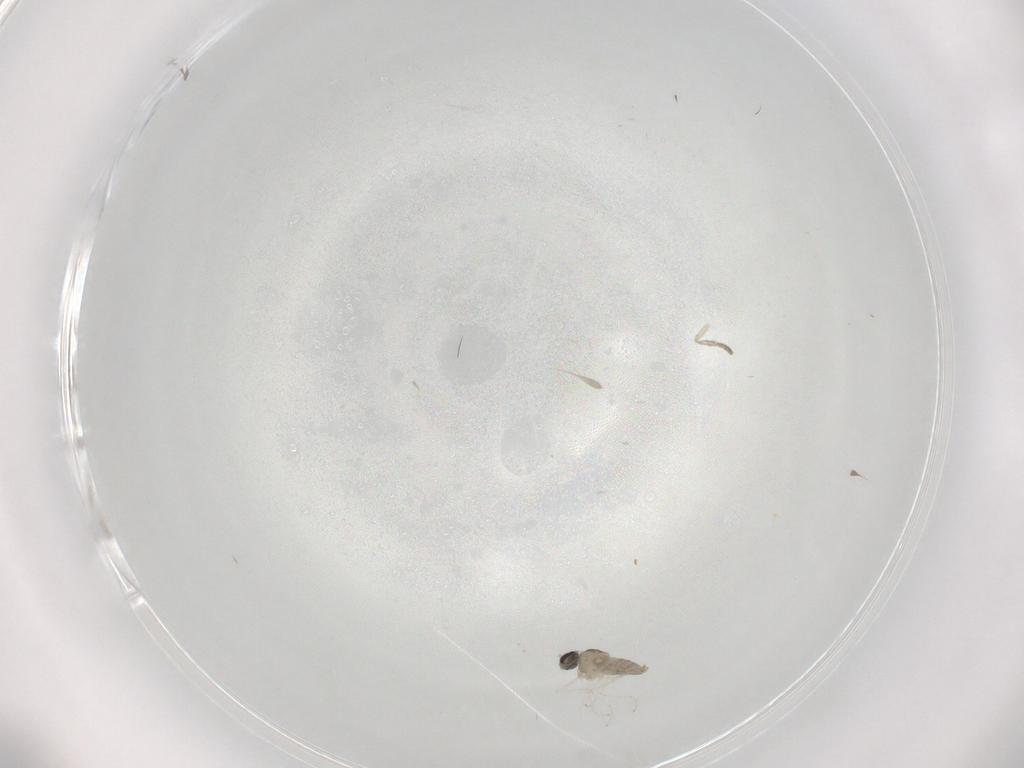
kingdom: Animalia
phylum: Arthropoda
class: Insecta
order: Diptera
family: Cecidomyiidae
